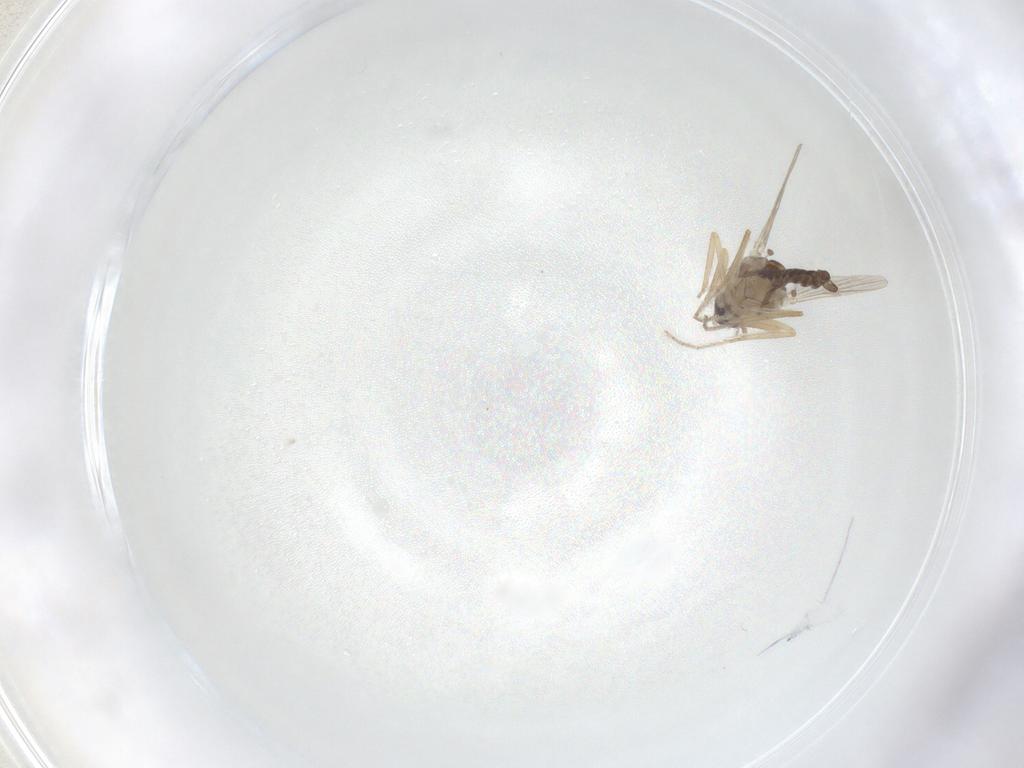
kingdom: Animalia
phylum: Arthropoda
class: Insecta
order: Diptera
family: Ceratopogonidae
